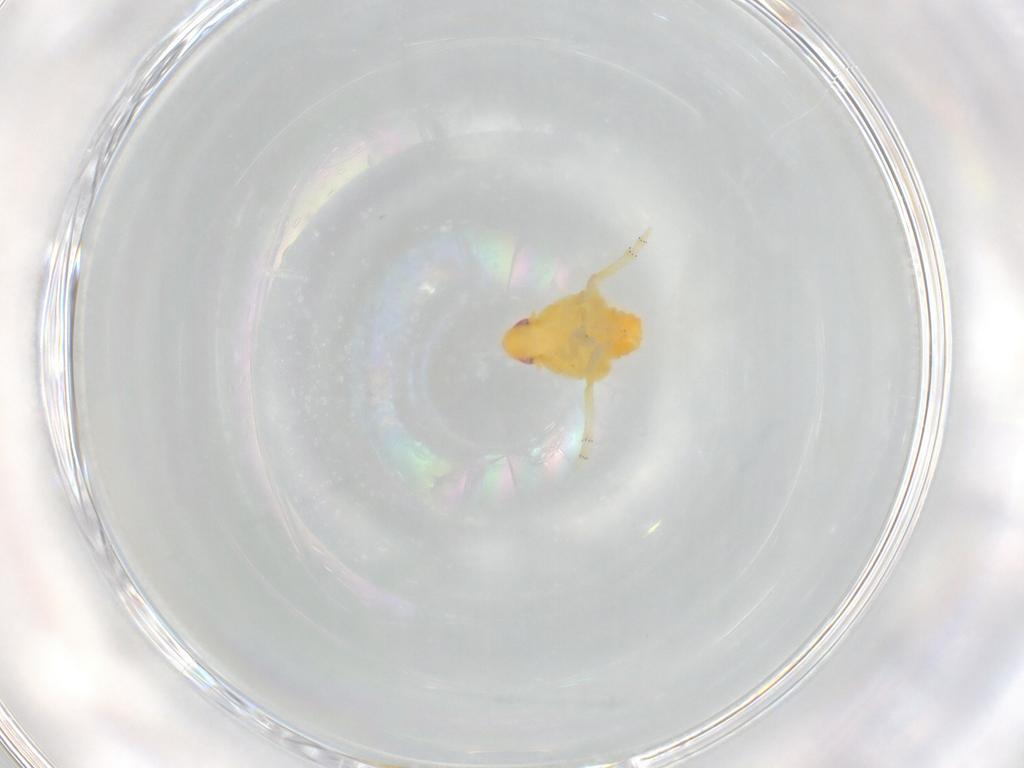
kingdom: Animalia
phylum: Arthropoda
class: Insecta
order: Hemiptera
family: Tropiduchidae
